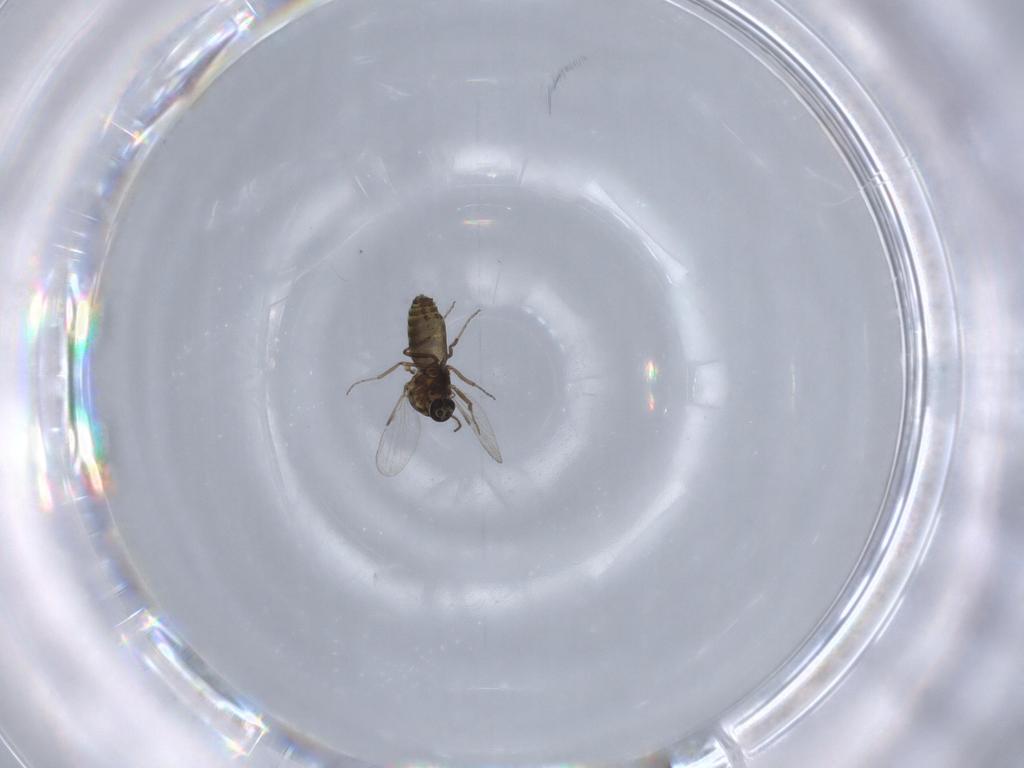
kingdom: Animalia
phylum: Arthropoda
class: Insecta
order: Diptera
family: Ceratopogonidae
